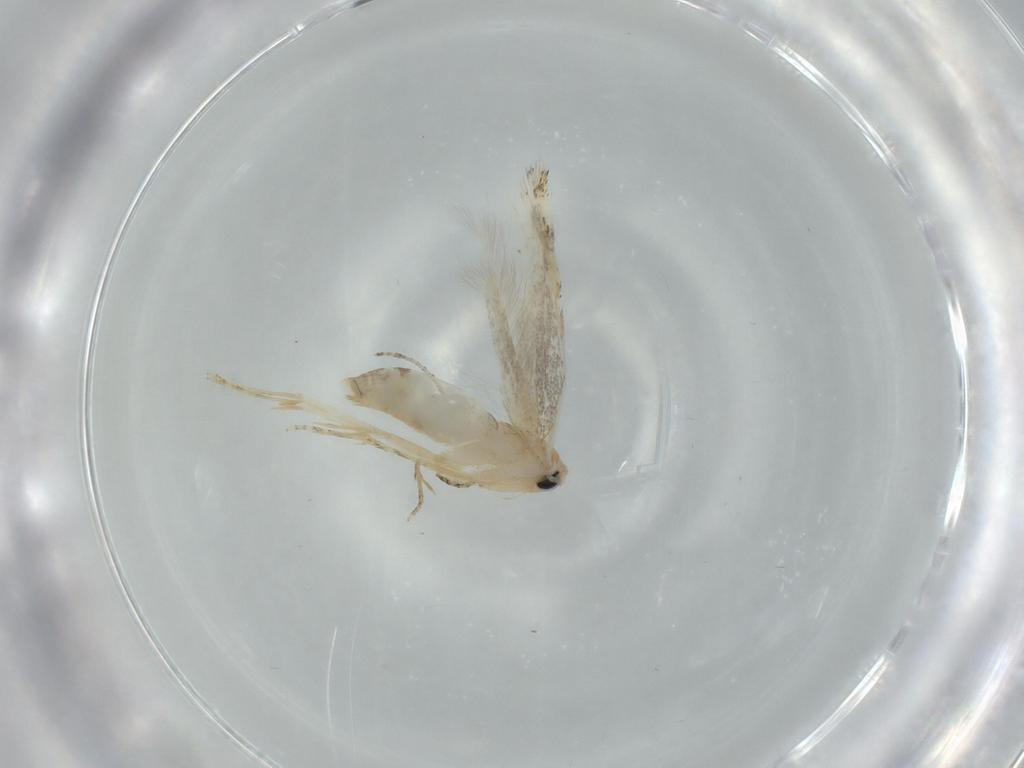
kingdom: Animalia
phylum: Arthropoda
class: Insecta
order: Lepidoptera
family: Bucculatricidae
